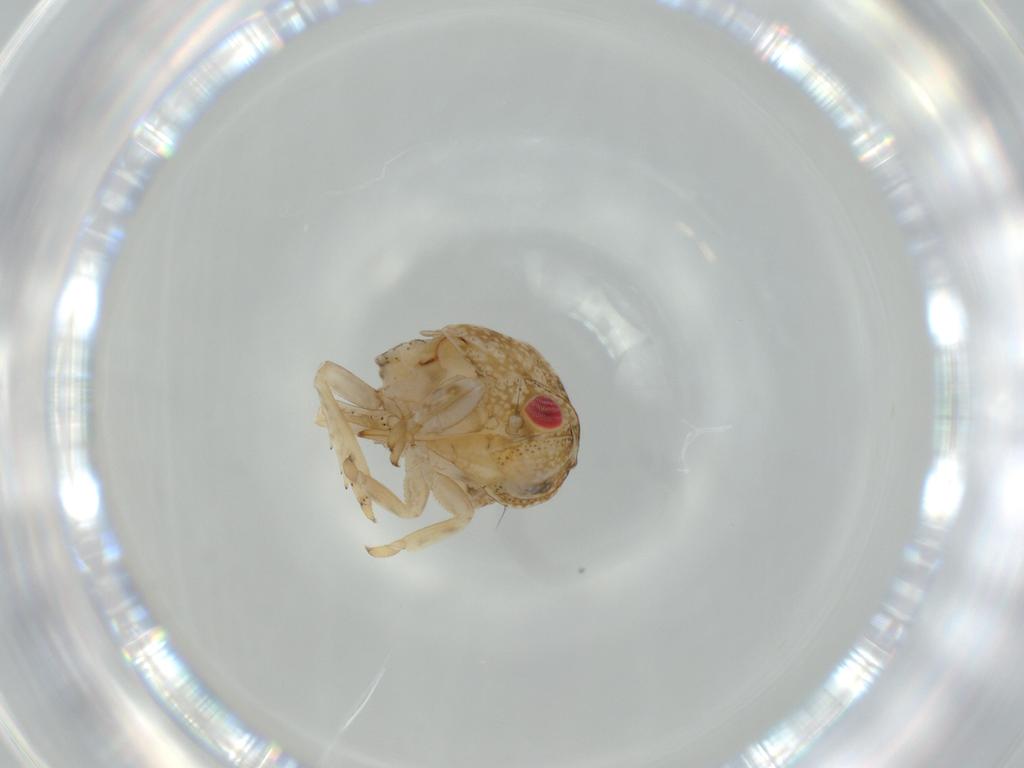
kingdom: Animalia
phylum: Arthropoda
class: Insecta
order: Hemiptera
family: Acanaloniidae
